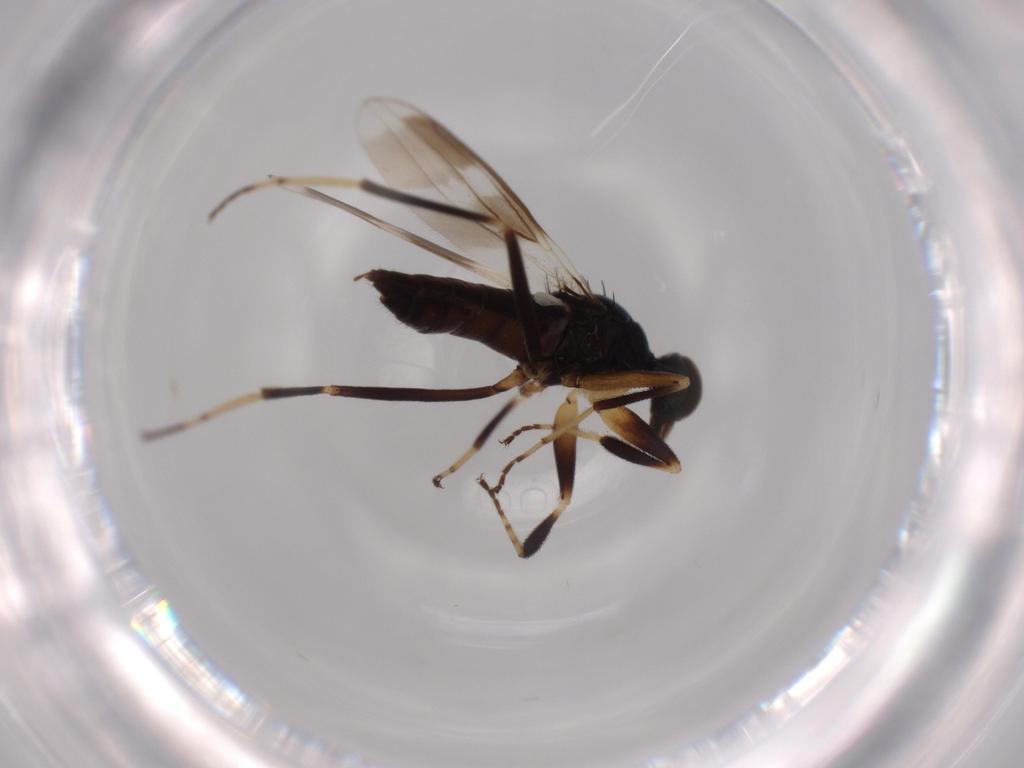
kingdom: Animalia
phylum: Arthropoda
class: Insecta
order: Diptera
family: Hybotidae
